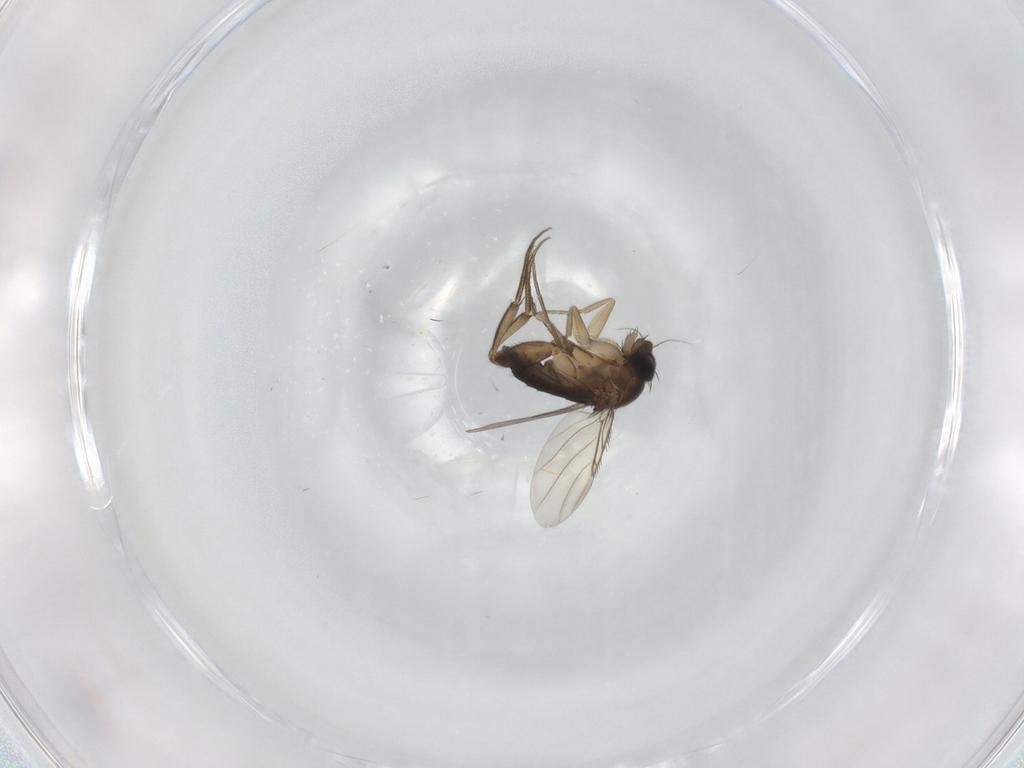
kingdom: Animalia
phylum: Arthropoda
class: Insecta
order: Diptera
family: Phoridae
